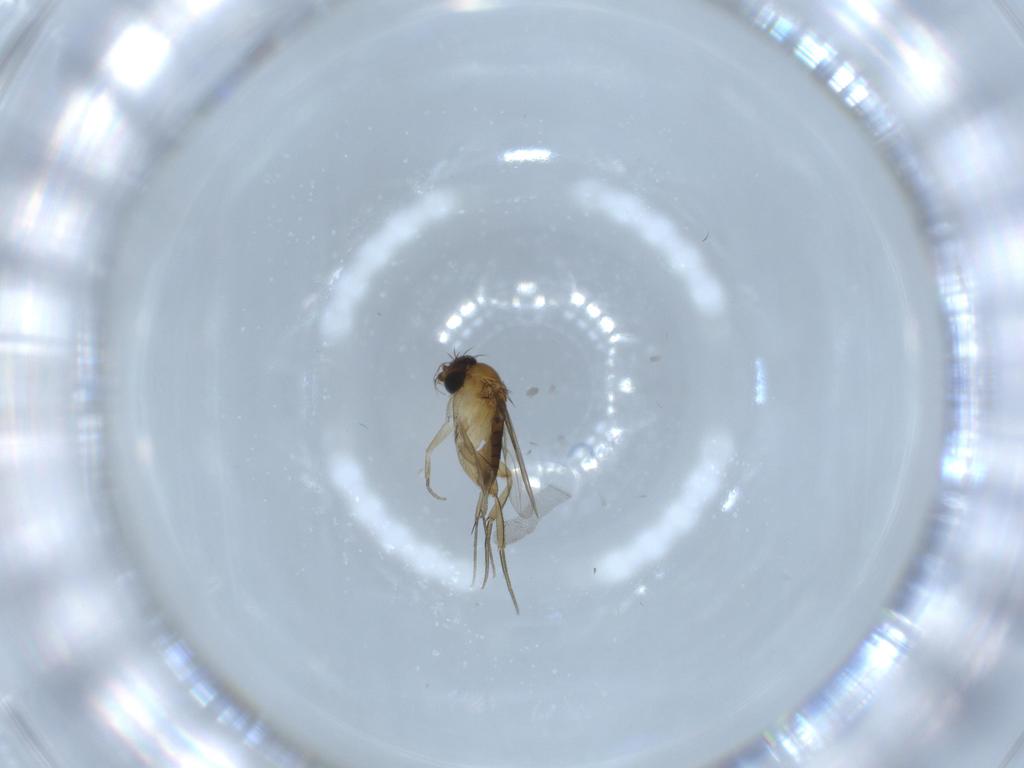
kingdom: Animalia
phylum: Arthropoda
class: Insecta
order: Diptera
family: Phoridae
